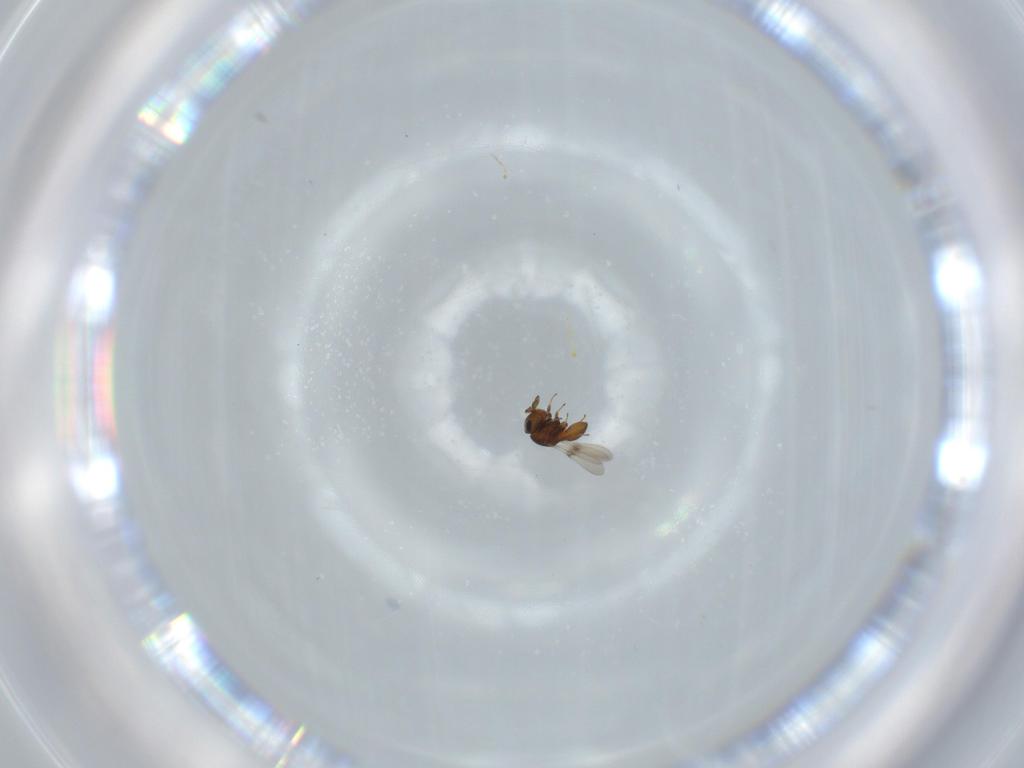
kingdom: Animalia
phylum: Arthropoda
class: Insecta
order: Hymenoptera
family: Scelionidae
